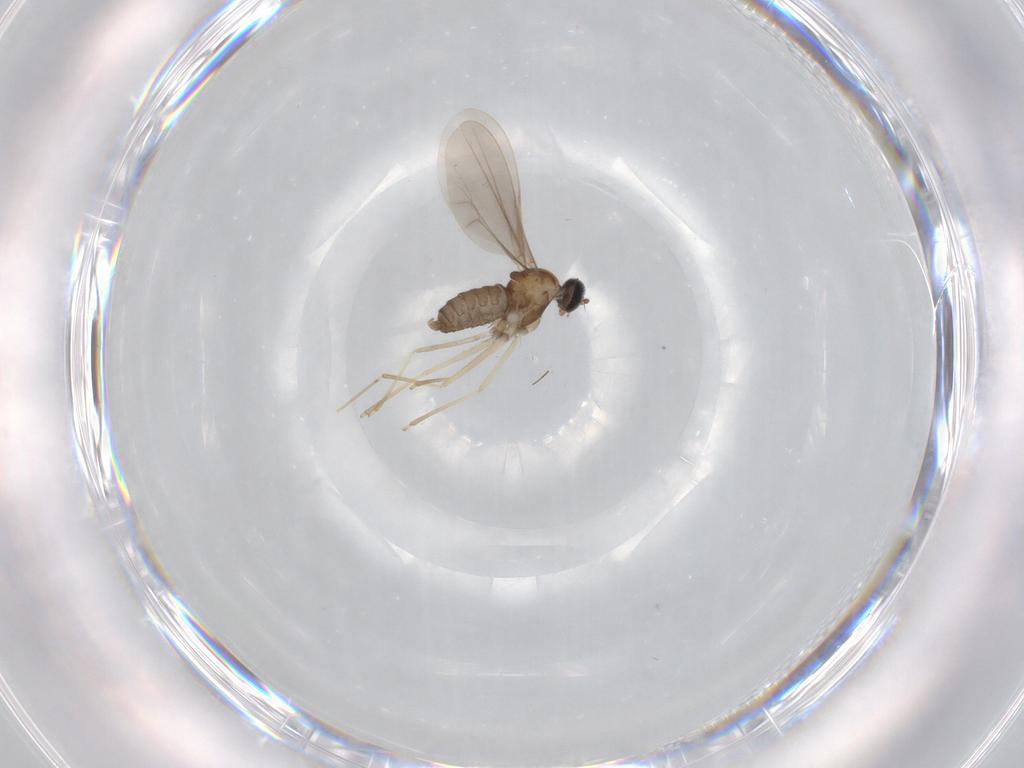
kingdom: Animalia
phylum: Arthropoda
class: Insecta
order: Diptera
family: Cecidomyiidae
